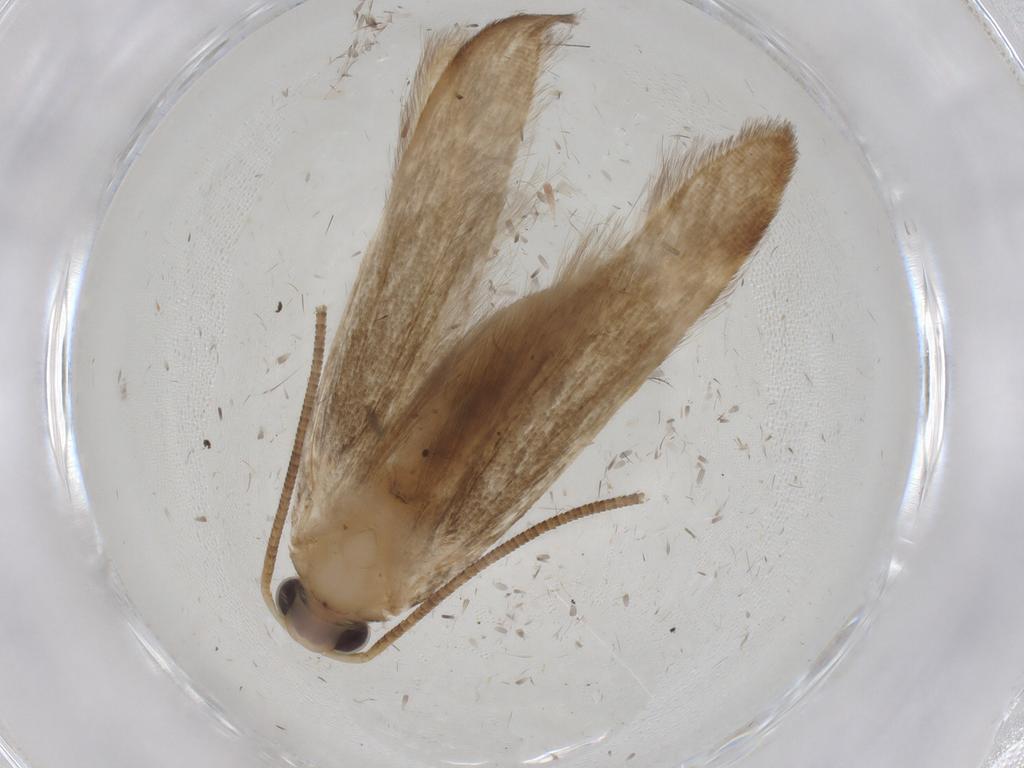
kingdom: Animalia
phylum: Arthropoda
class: Insecta
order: Lepidoptera
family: Nolidae
